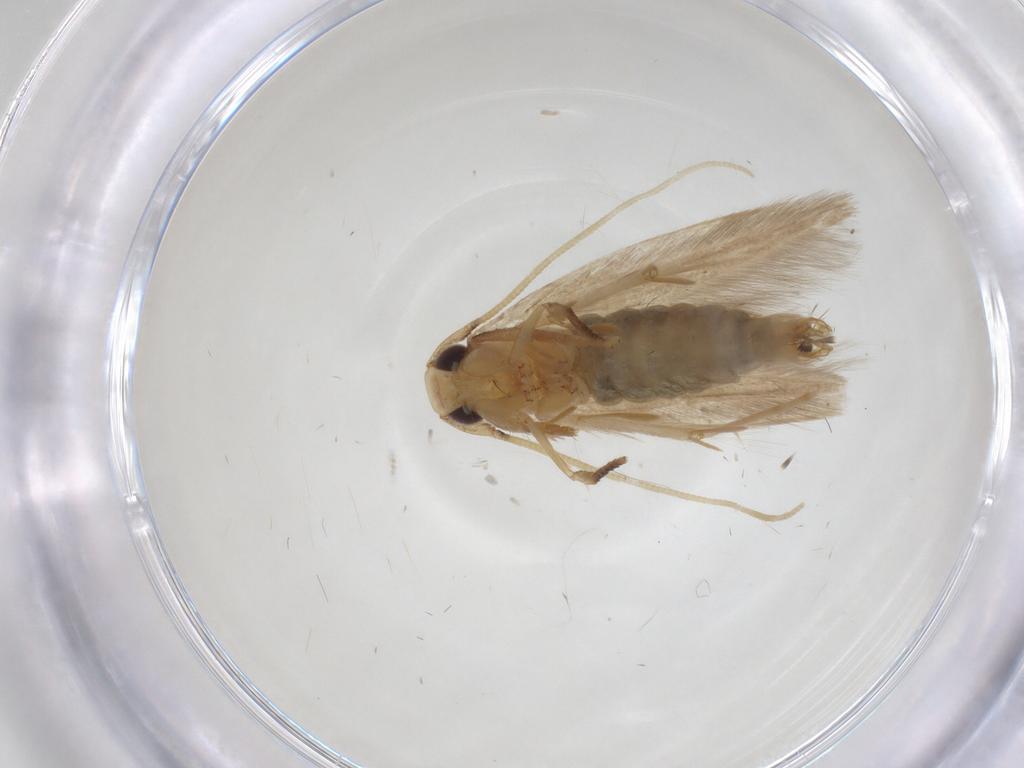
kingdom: Animalia
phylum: Arthropoda
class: Insecta
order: Lepidoptera
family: Tineidae
